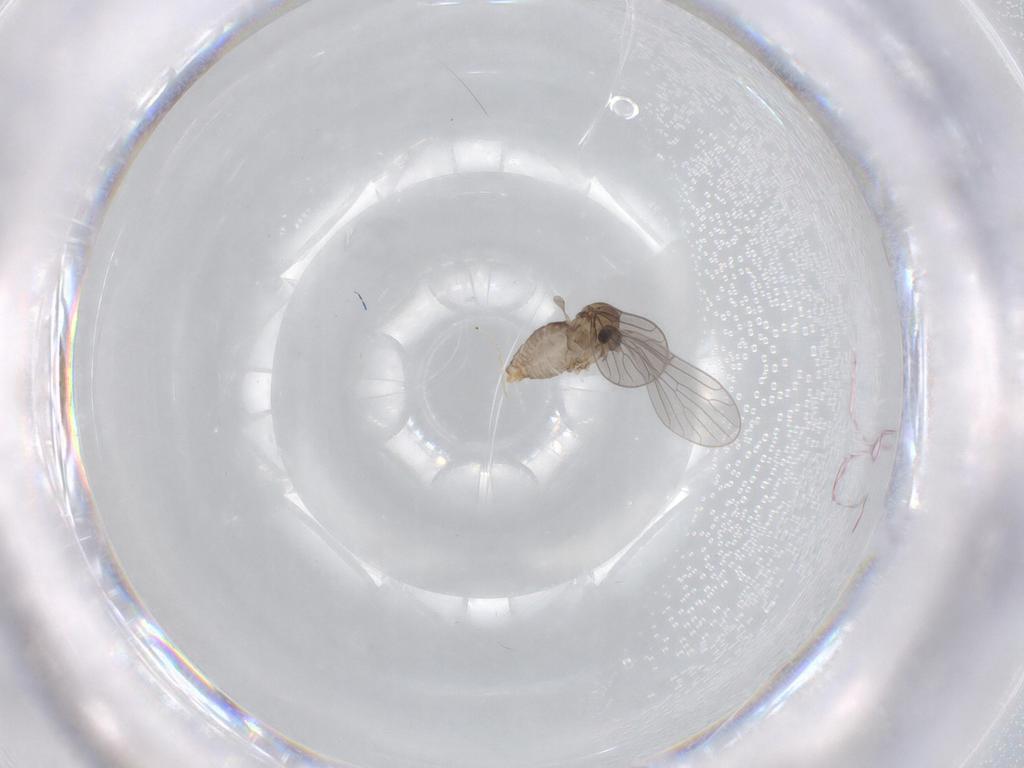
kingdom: Animalia
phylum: Arthropoda
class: Insecta
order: Diptera
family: Psychodidae
